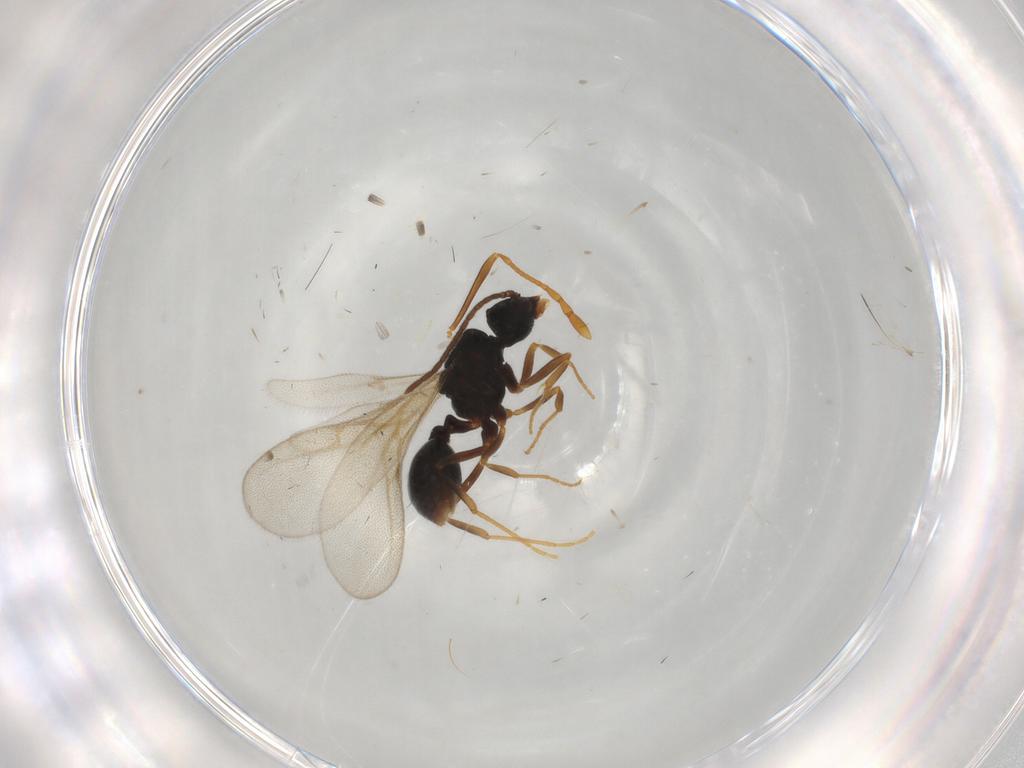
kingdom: Animalia
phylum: Arthropoda
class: Insecta
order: Hymenoptera
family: Formicidae
